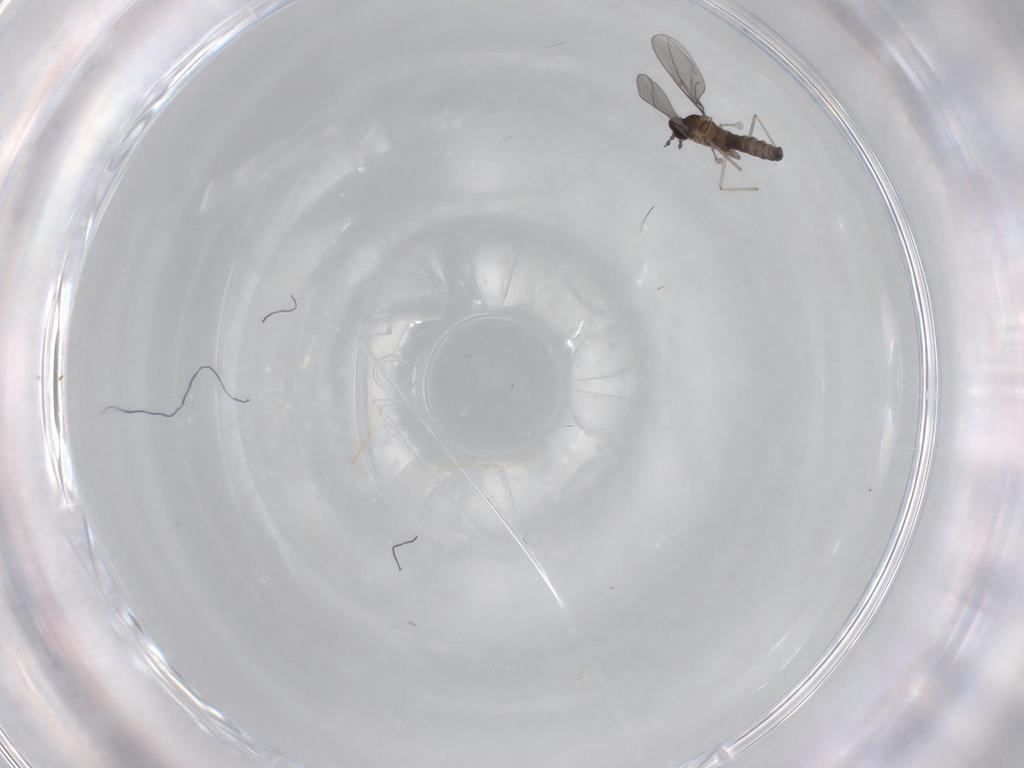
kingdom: Animalia
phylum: Arthropoda
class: Insecta
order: Diptera
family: Cecidomyiidae
